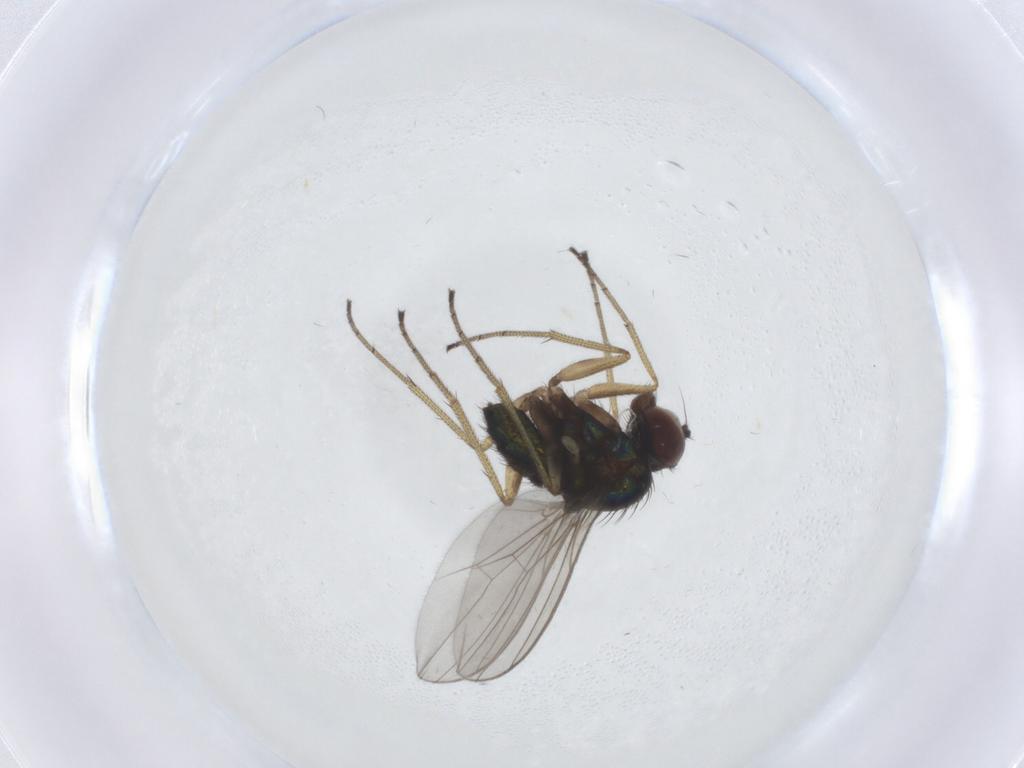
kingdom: Animalia
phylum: Arthropoda
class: Insecta
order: Diptera
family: Dolichopodidae
